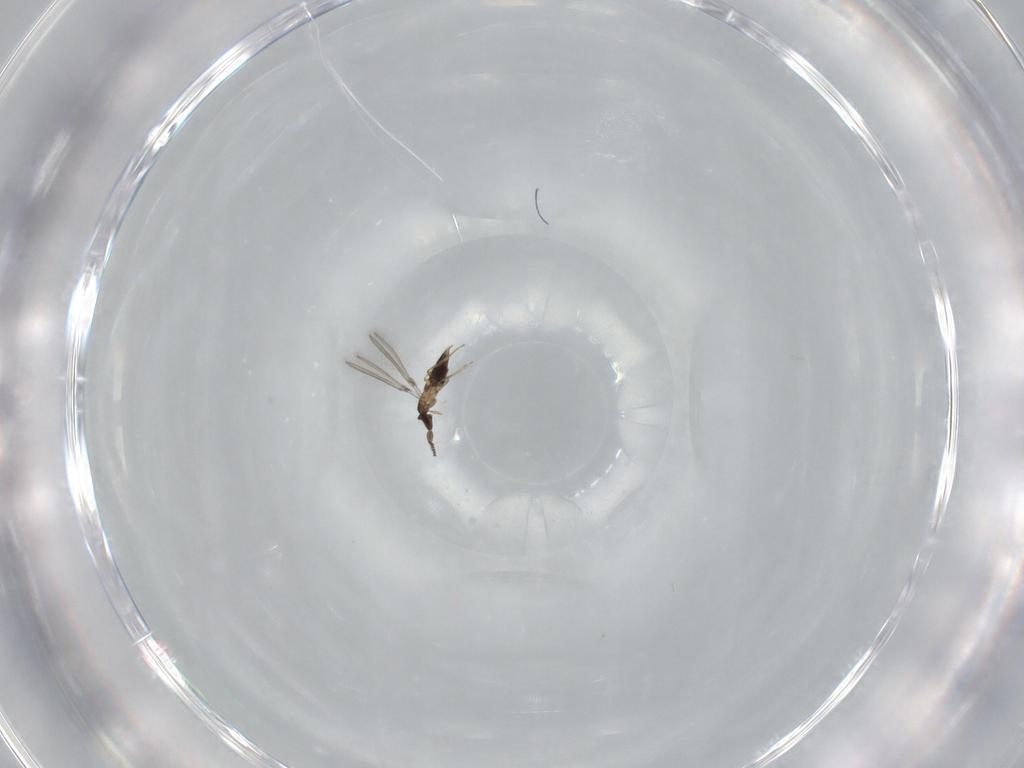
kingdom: Animalia
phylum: Arthropoda
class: Insecta
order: Hymenoptera
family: Mymaridae
